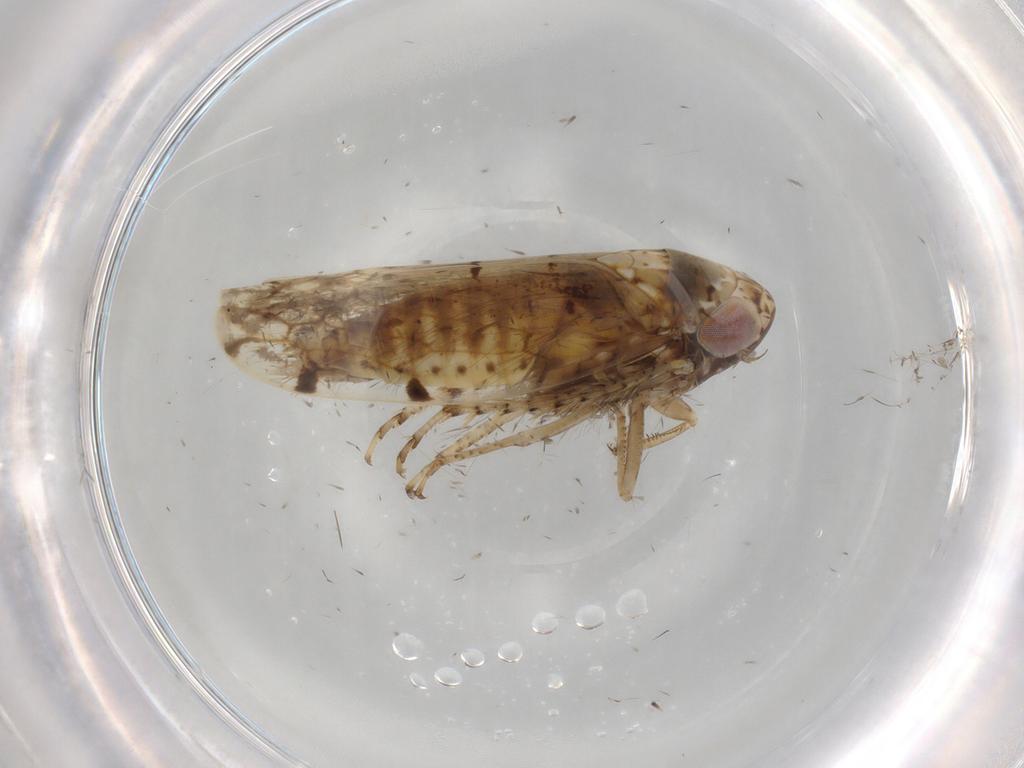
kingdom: Animalia
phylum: Arthropoda
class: Insecta
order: Hemiptera
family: Cicadellidae
